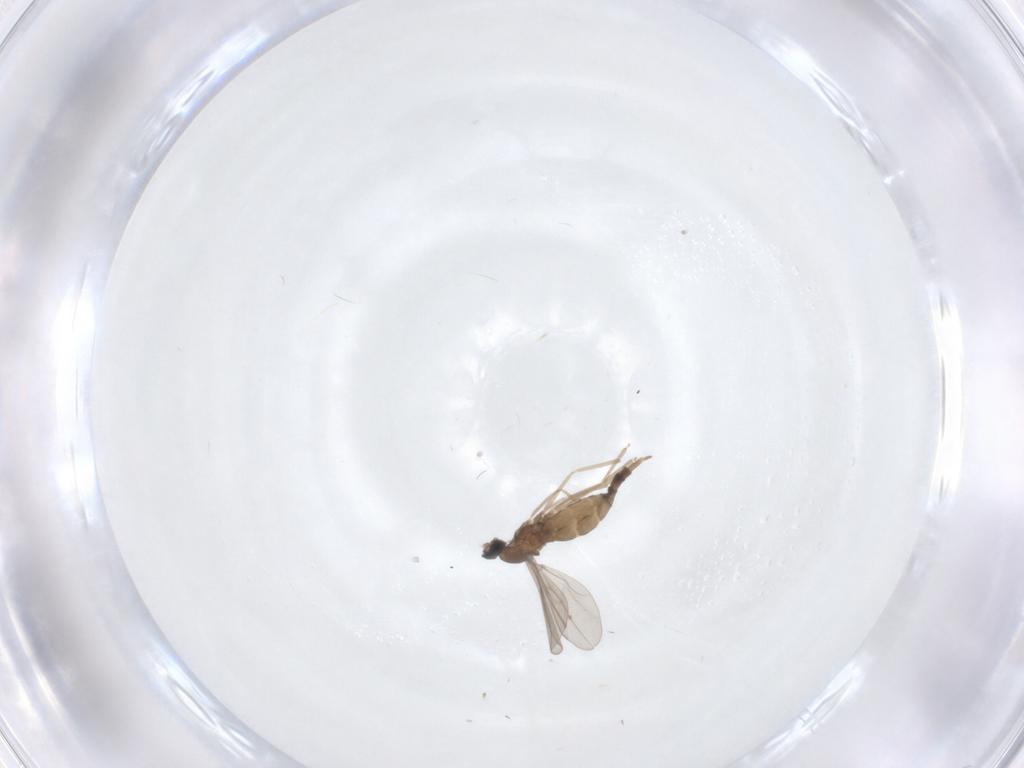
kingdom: Animalia
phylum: Arthropoda
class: Insecta
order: Diptera
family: Cecidomyiidae
